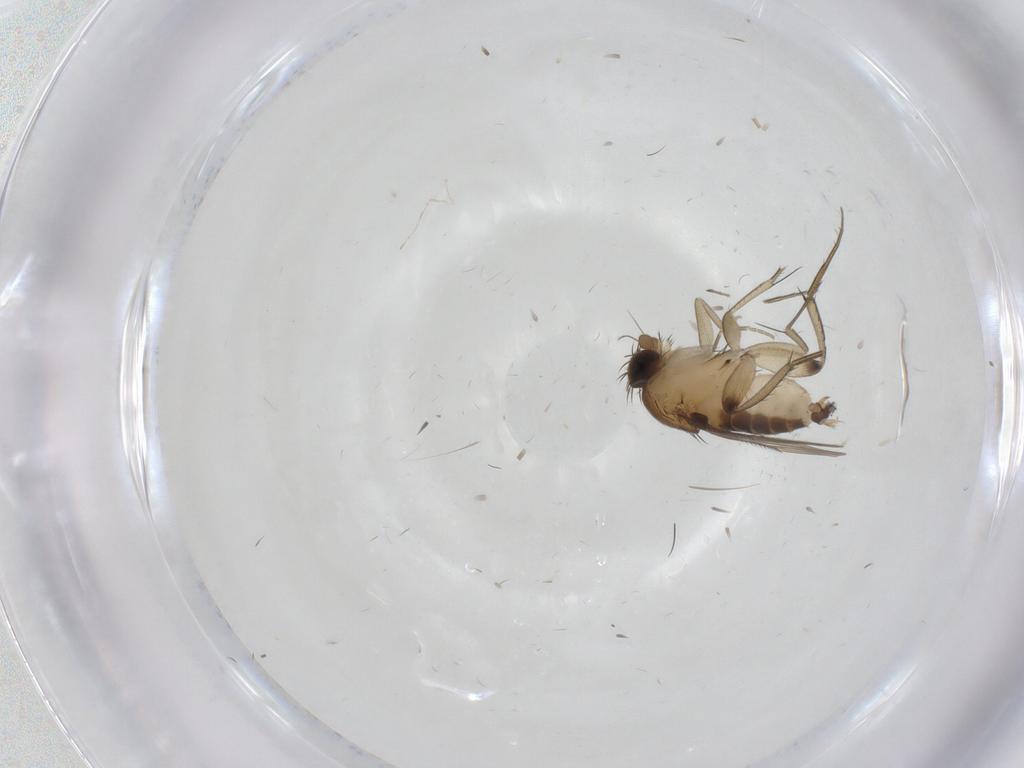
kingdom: Animalia
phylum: Arthropoda
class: Insecta
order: Diptera
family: Phoridae
